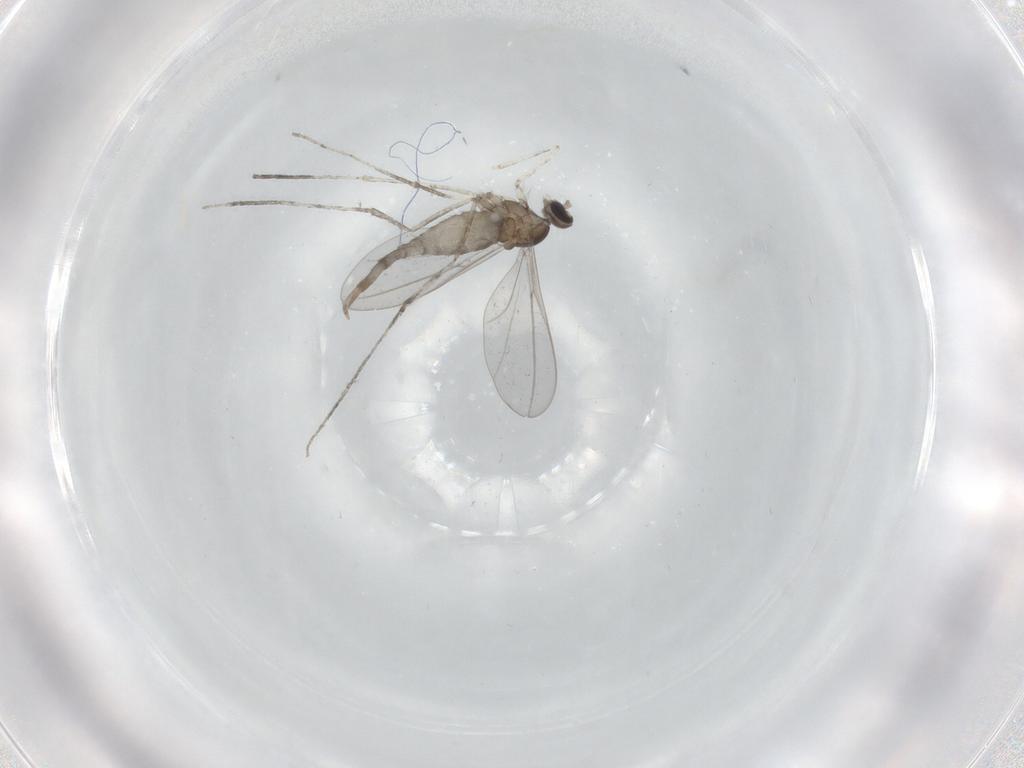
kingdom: Animalia
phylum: Arthropoda
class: Insecta
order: Diptera
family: Cecidomyiidae
